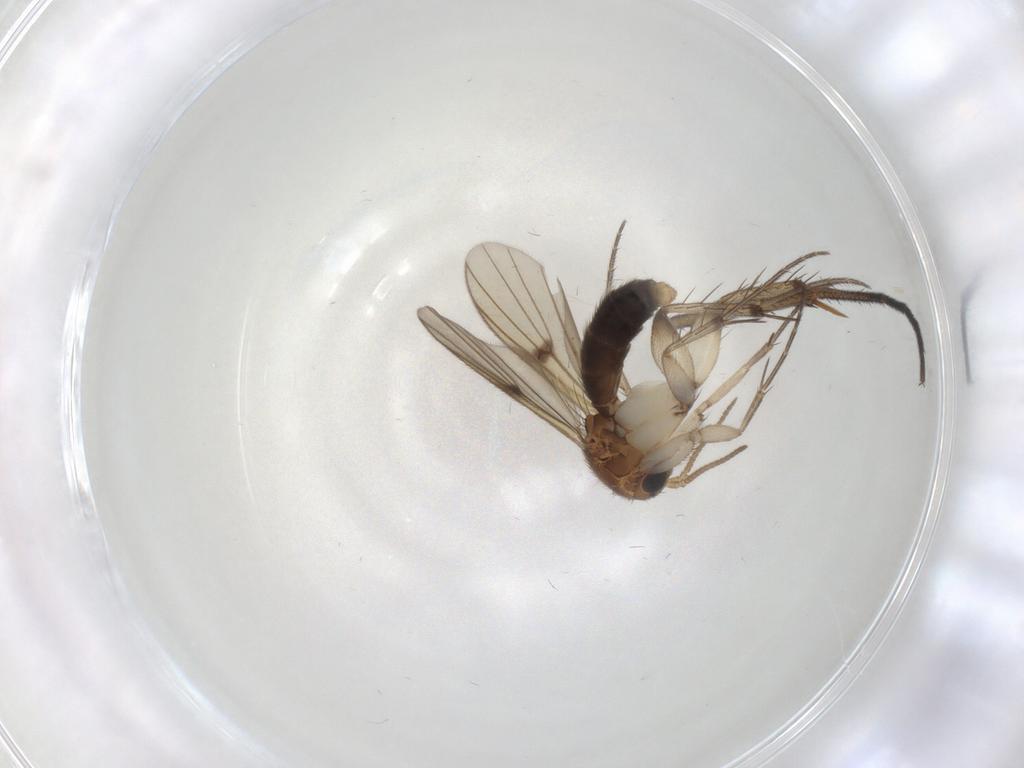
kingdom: Animalia
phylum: Arthropoda
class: Insecta
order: Diptera
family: Mycetophilidae
